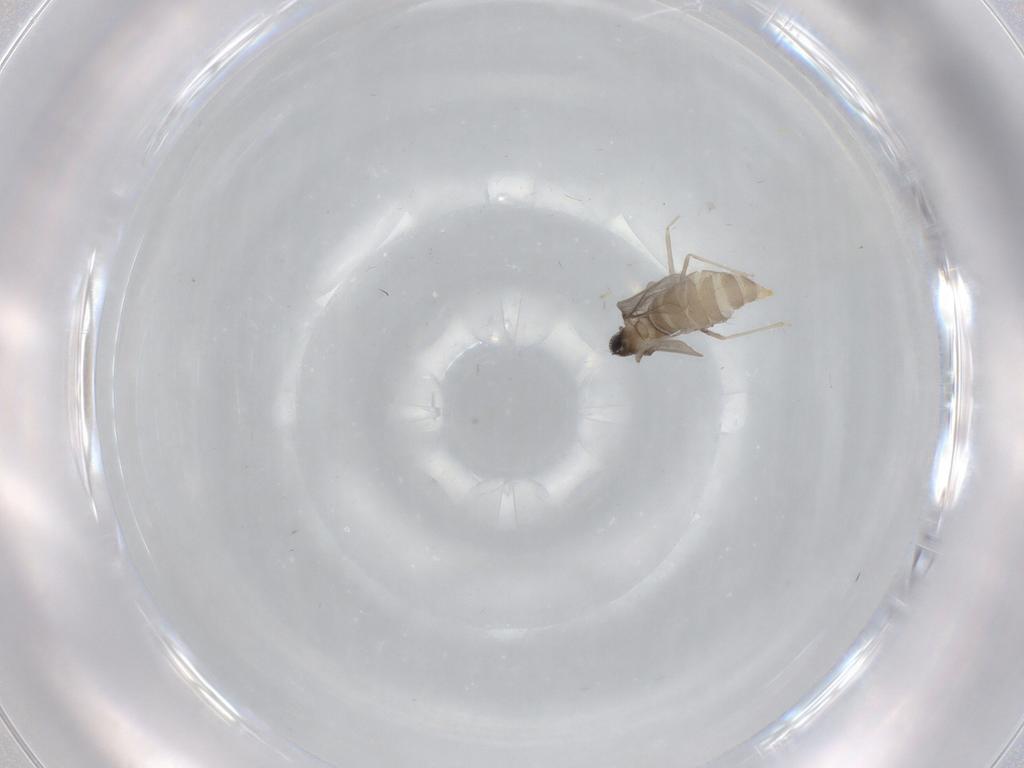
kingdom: Animalia
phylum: Arthropoda
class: Insecta
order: Diptera
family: Cecidomyiidae
